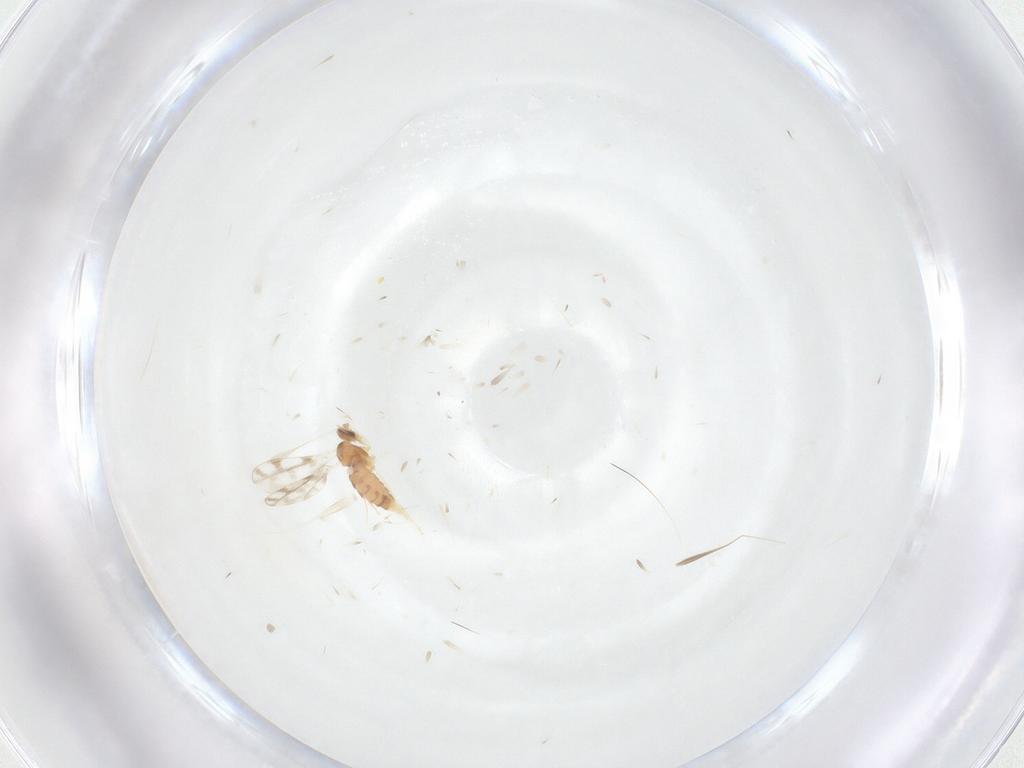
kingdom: Animalia
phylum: Arthropoda
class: Insecta
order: Diptera
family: Cecidomyiidae
